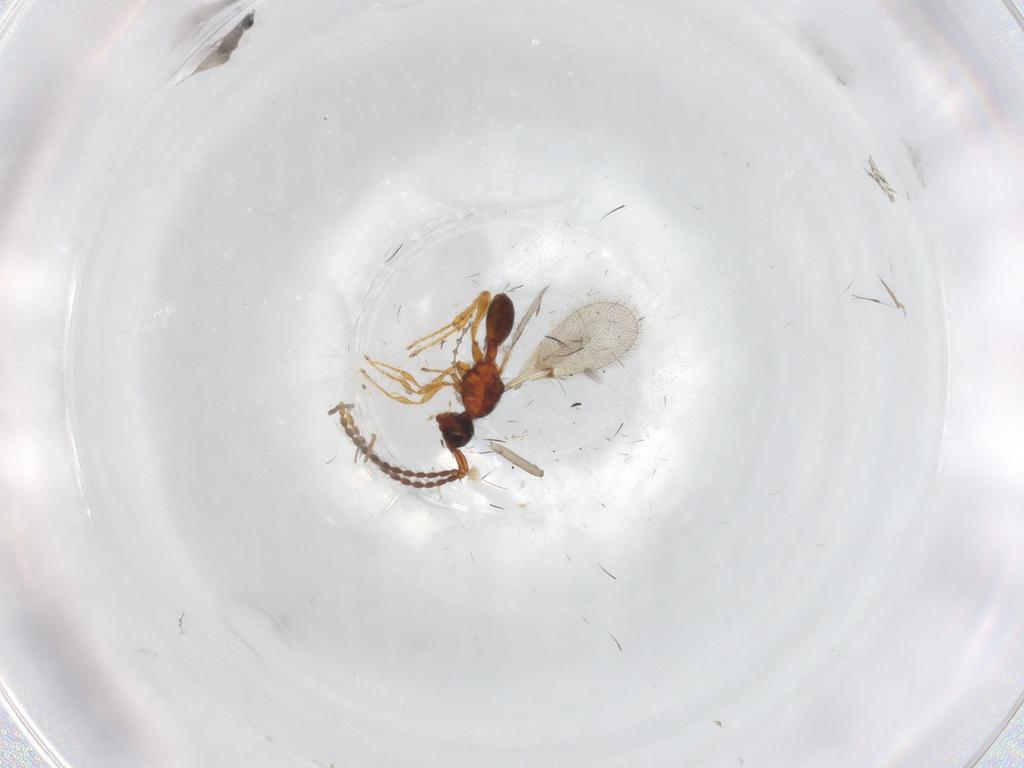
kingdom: Animalia
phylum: Arthropoda
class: Insecta
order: Hymenoptera
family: Diapriidae
